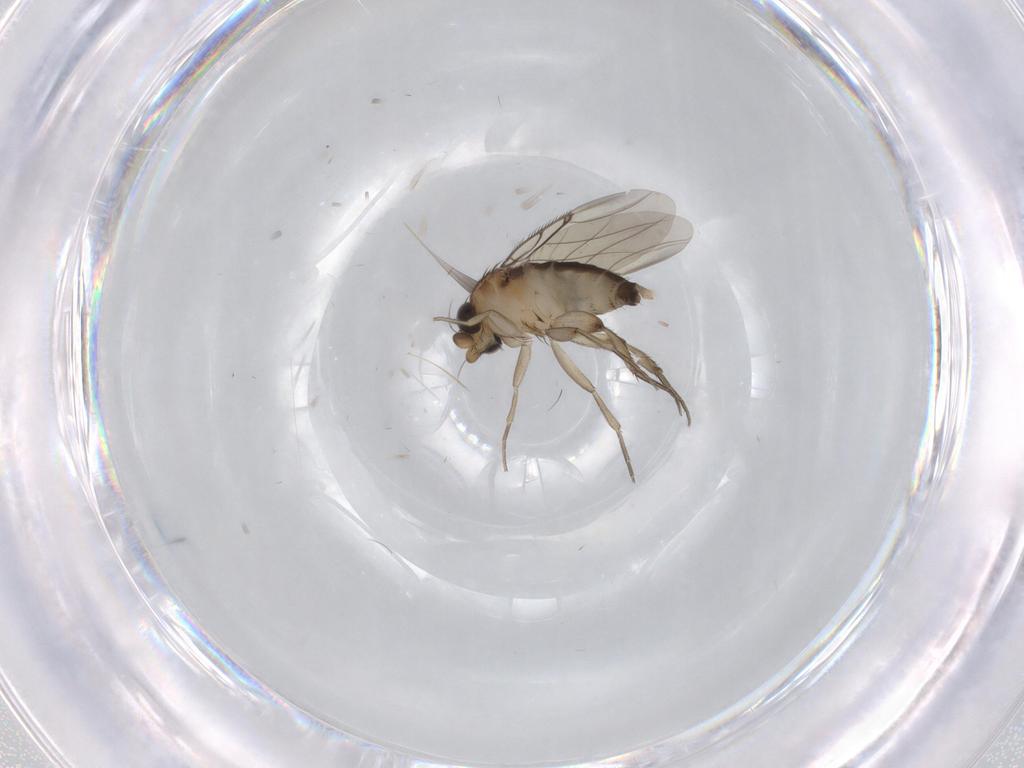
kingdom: Animalia
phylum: Arthropoda
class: Insecta
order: Diptera
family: Phoridae
